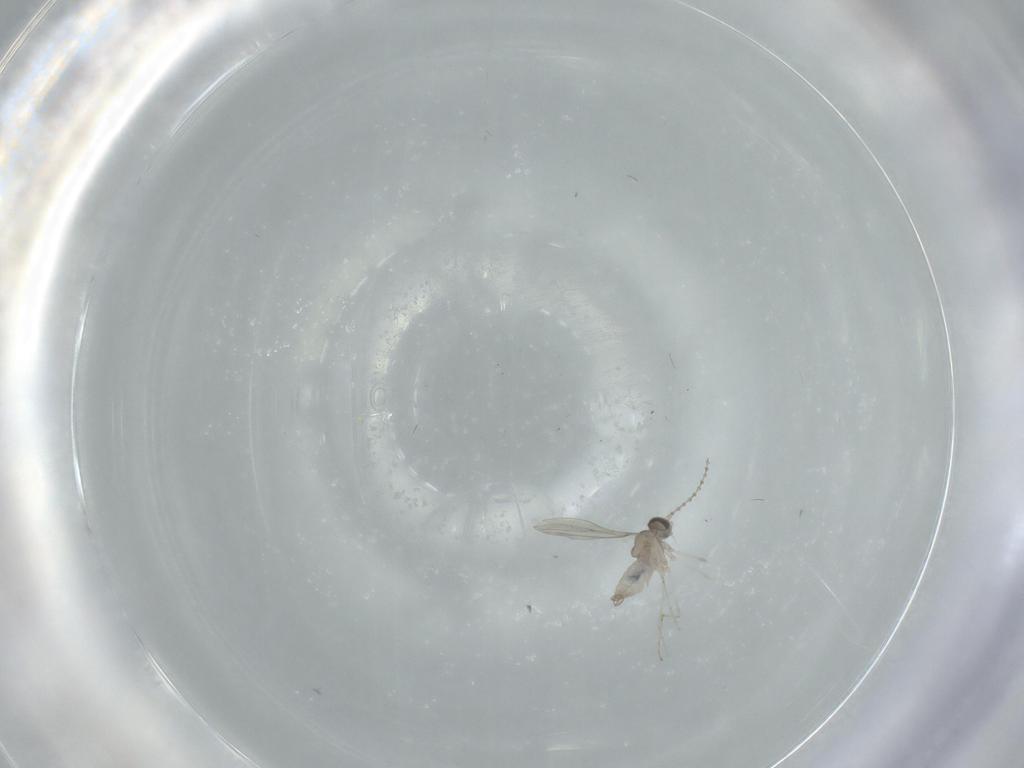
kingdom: Animalia
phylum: Arthropoda
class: Insecta
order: Diptera
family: Cecidomyiidae
